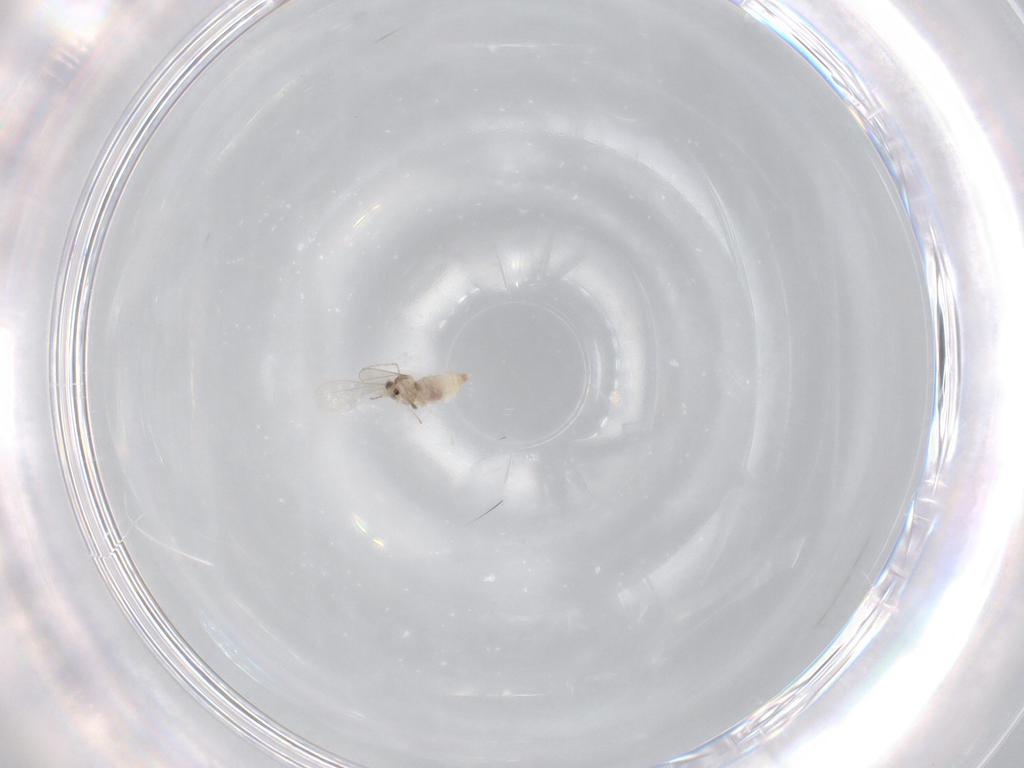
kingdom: Animalia
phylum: Arthropoda
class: Insecta
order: Diptera
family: Cecidomyiidae
